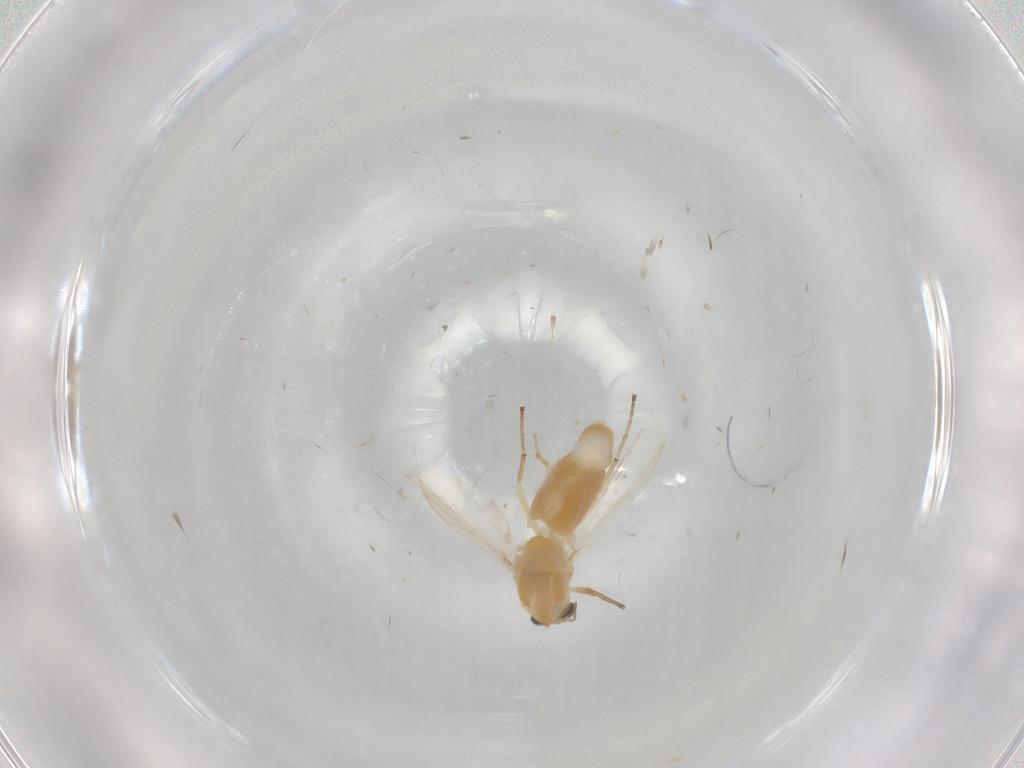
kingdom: Animalia
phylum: Arthropoda
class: Insecta
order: Diptera
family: Chironomidae
